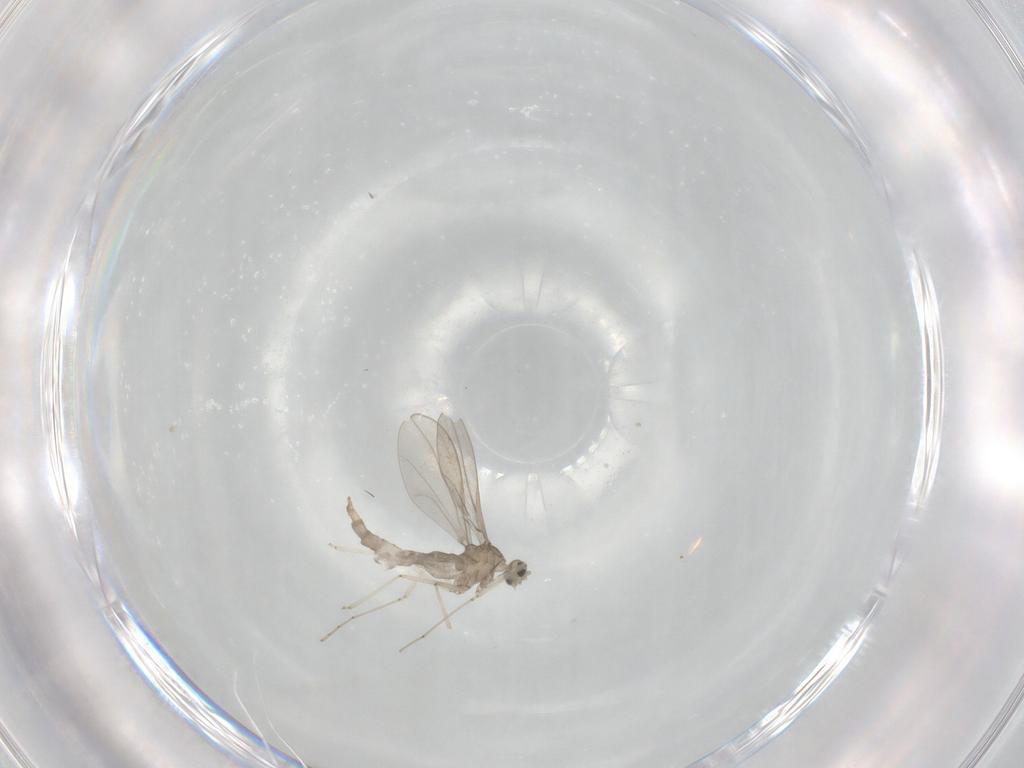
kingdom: Animalia
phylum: Arthropoda
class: Insecta
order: Diptera
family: Cecidomyiidae
